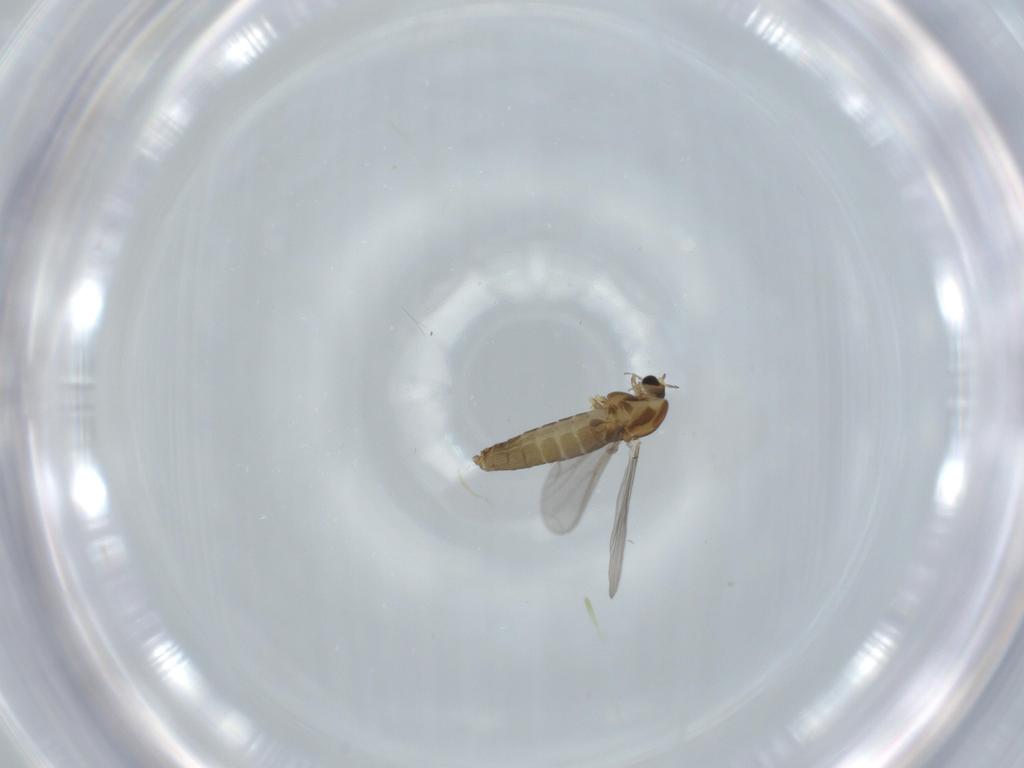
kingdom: Animalia
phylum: Arthropoda
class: Insecta
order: Diptera
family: Chironomidae
